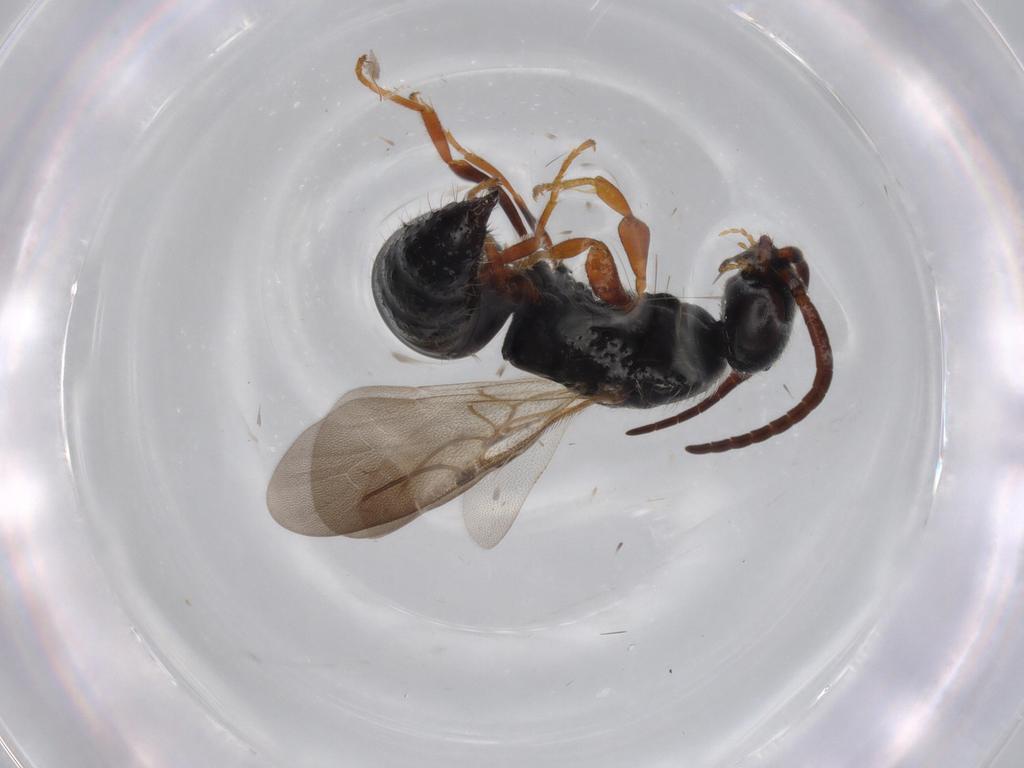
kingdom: Animalia
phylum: Arthropoda
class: Insecta
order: Hymenoptera
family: Bethylidae
